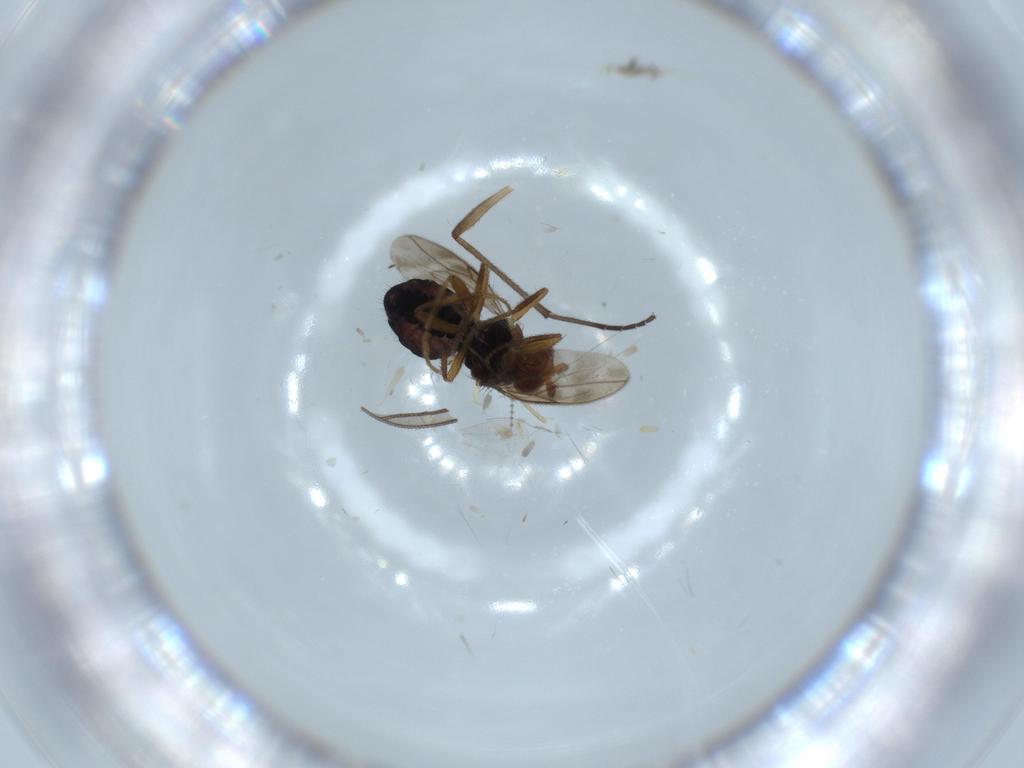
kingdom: Animalia
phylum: Arthropoda
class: Insecta
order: Diptera
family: Sphaeroceridae
